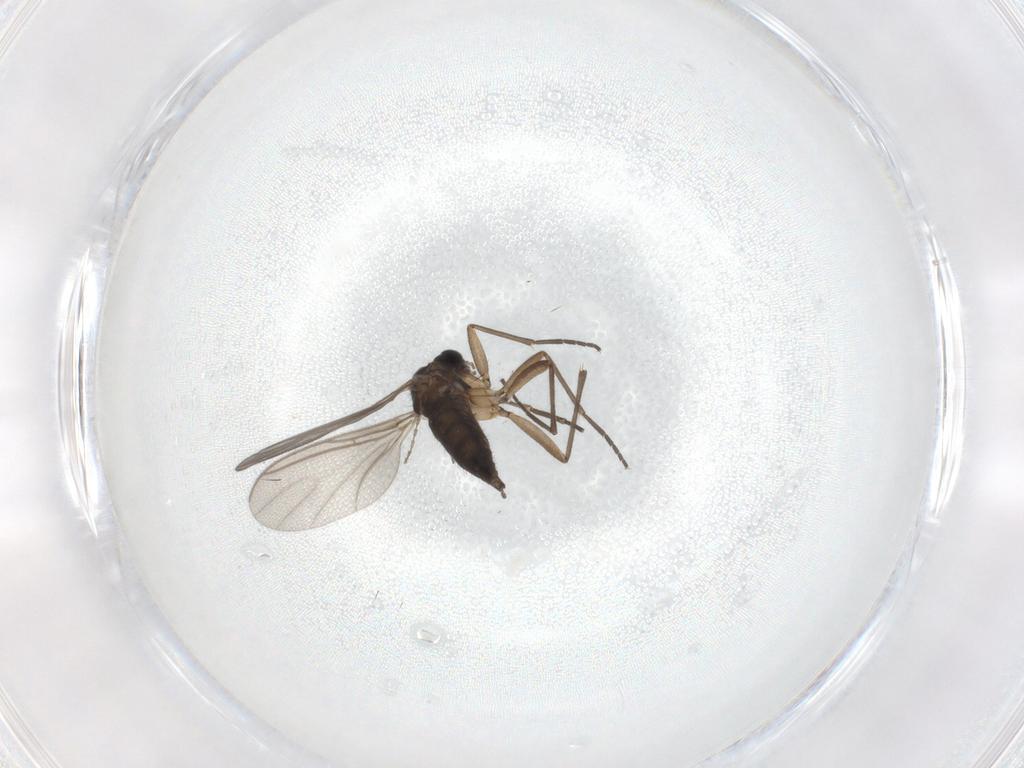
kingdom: Animalia
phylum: Arthropoda
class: Insecta
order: Diptera
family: Sciaridae
